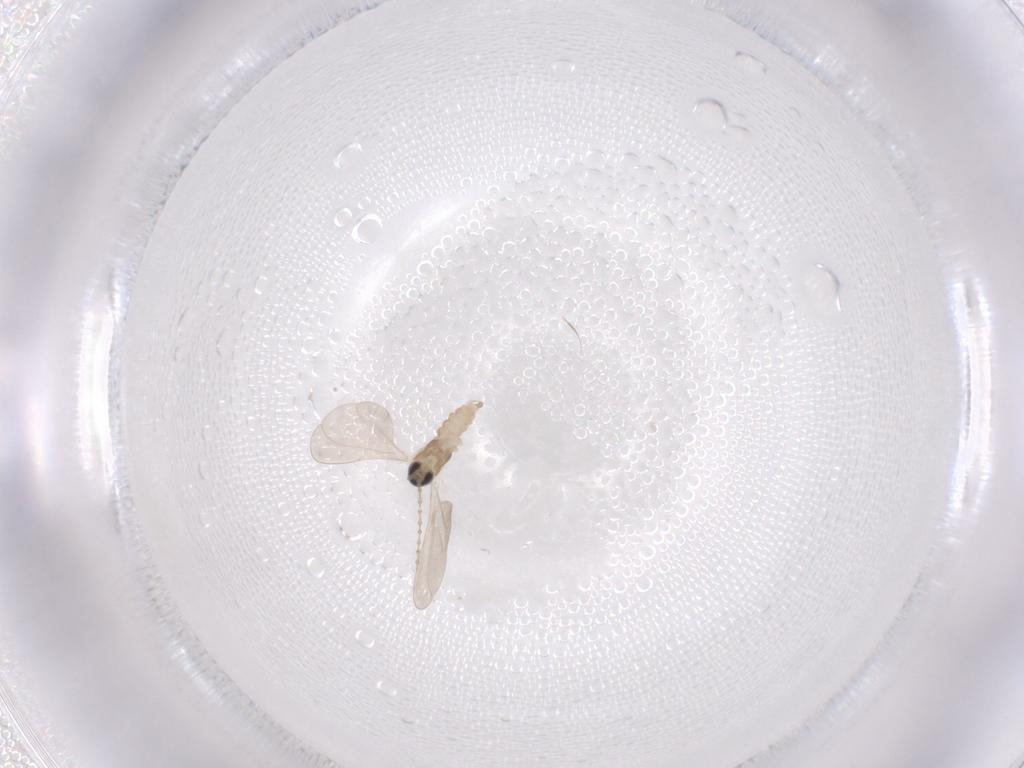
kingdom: Animalia
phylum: Arthropoda
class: Insecta
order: Diptera
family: Cecidomyiidae
